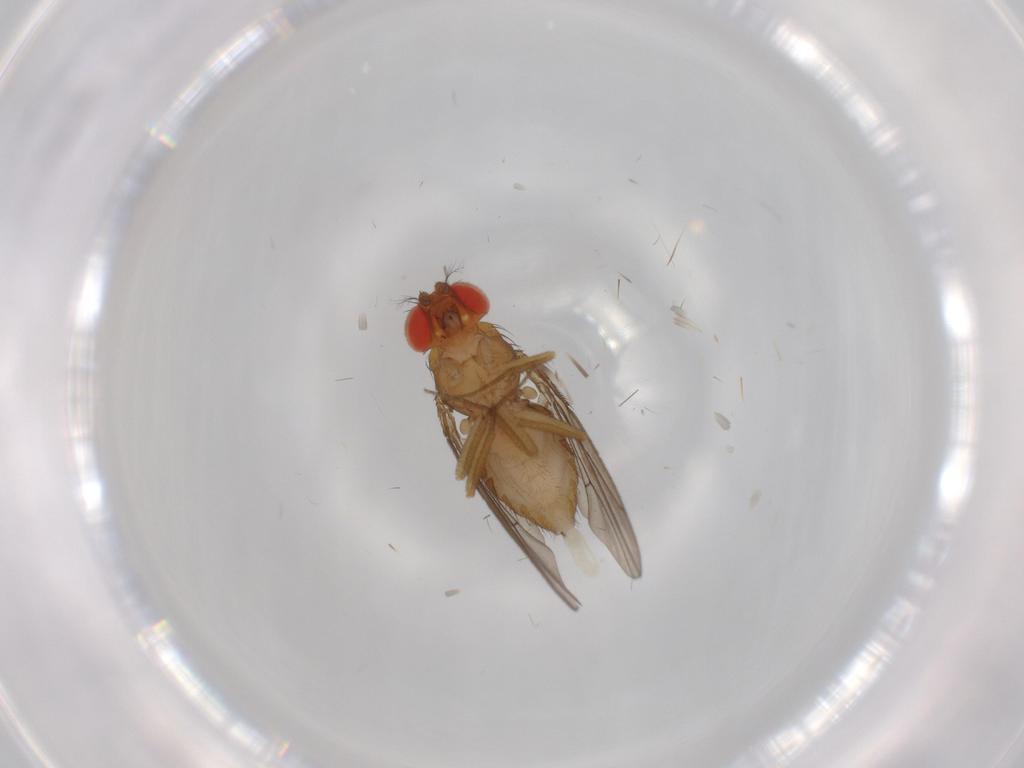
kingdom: Animalia
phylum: Arthropoda
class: Insecta
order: Diptera
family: Drosophilidae
